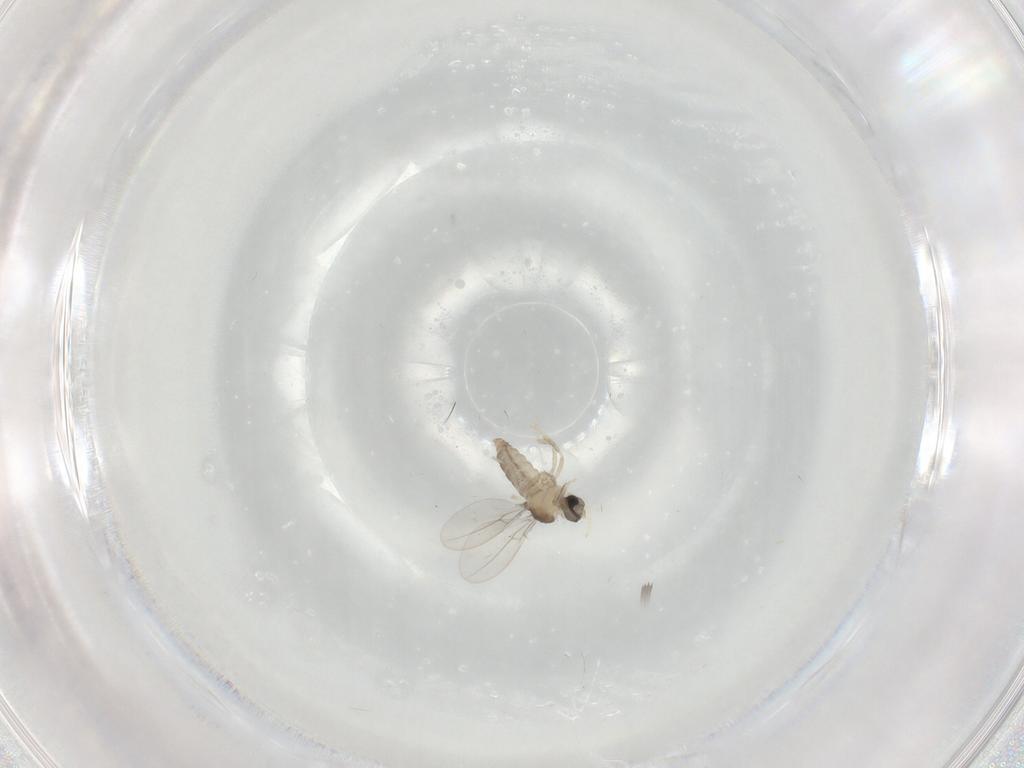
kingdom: Animalia
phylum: Arthropoda
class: Insecta
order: Diptera
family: Cecidomyiidae
